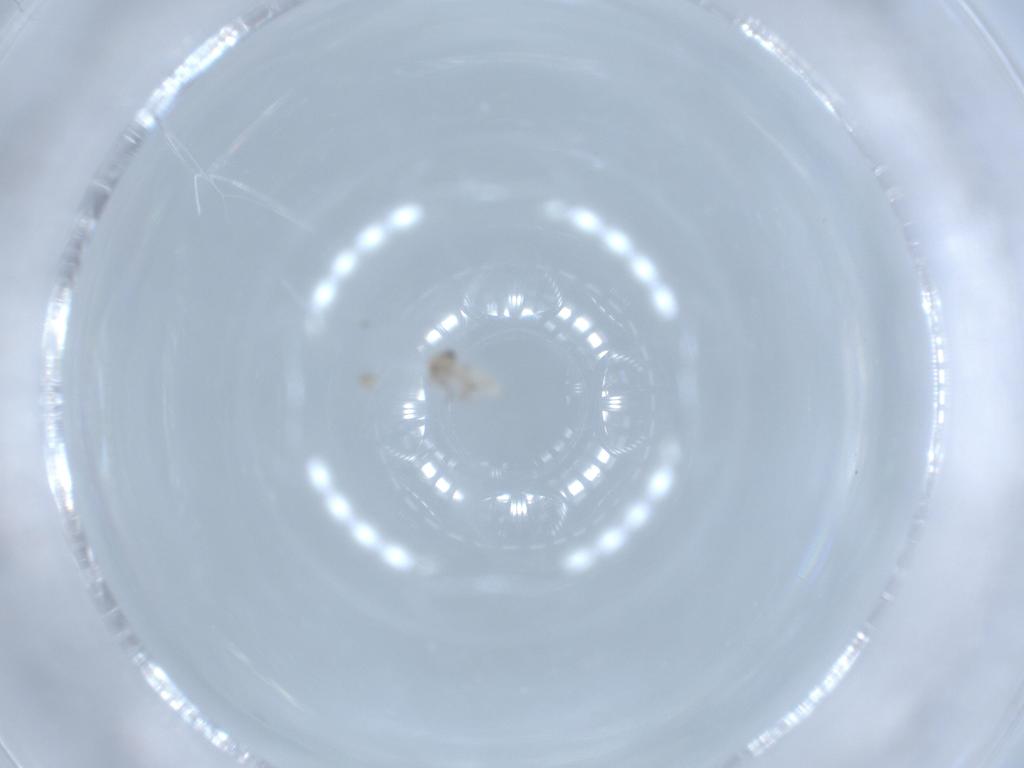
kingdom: Animalia
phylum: Arthropoda
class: Insecta
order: Psocodea
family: Lepidopsocidae
